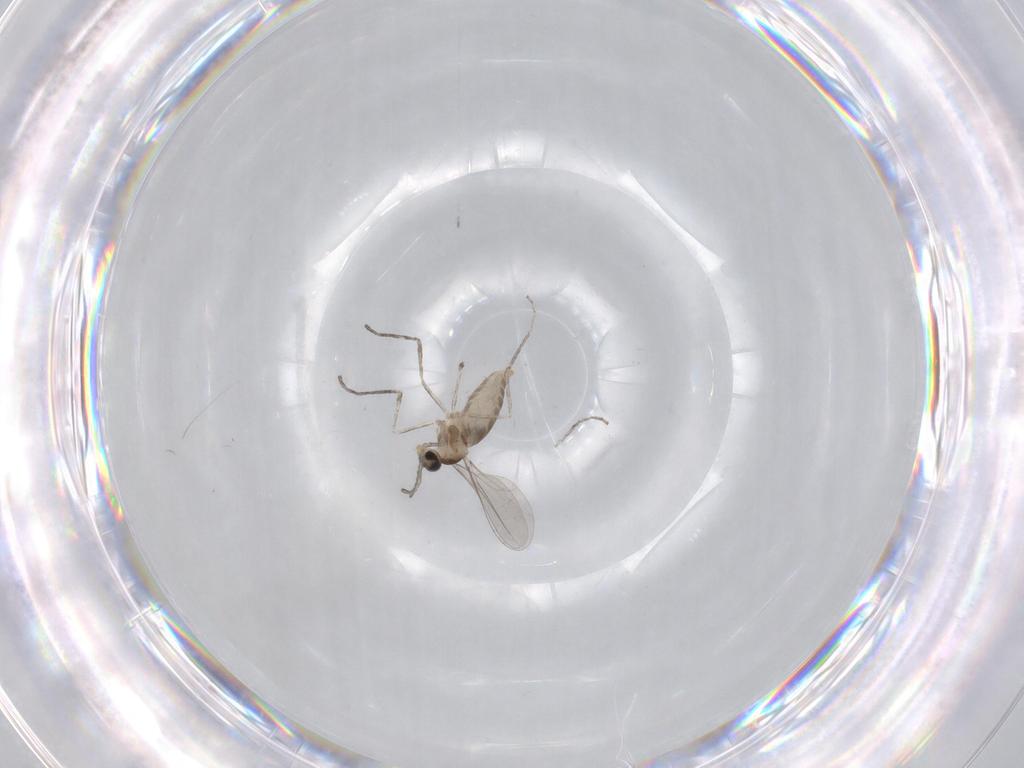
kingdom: Animalia
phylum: Arthropoda
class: Insecta
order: Diptera
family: Cecidomyiidae
